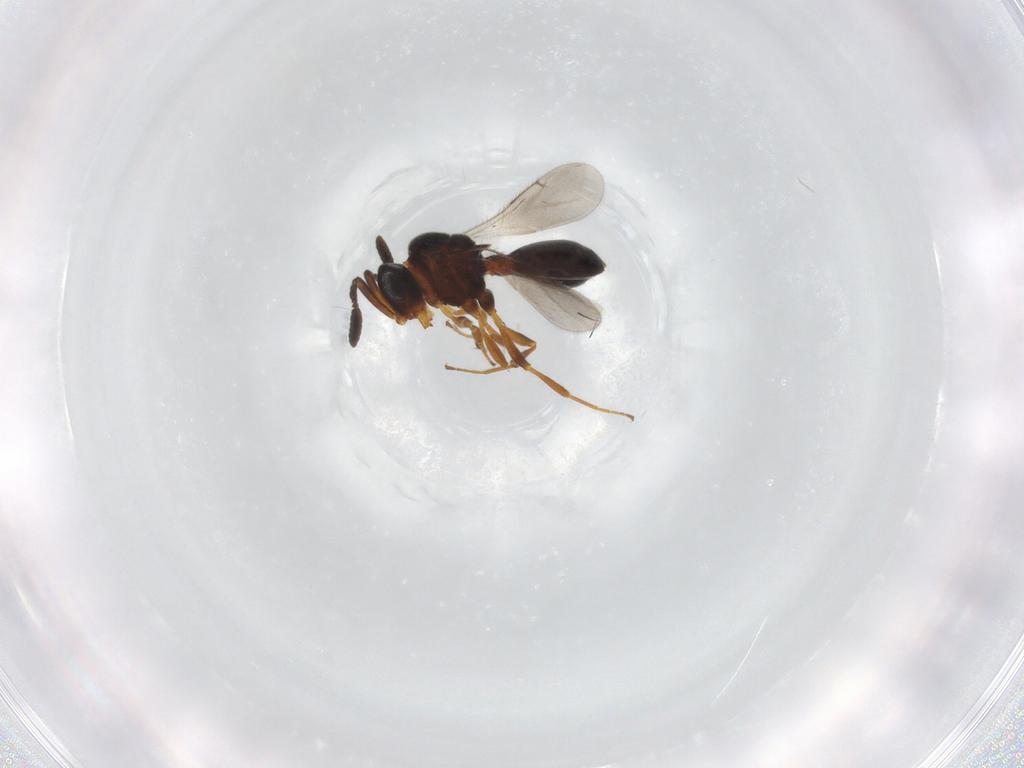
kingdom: Animalia
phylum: Arthropoda
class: Insecta
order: Hymenoptera
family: Scelionidae
